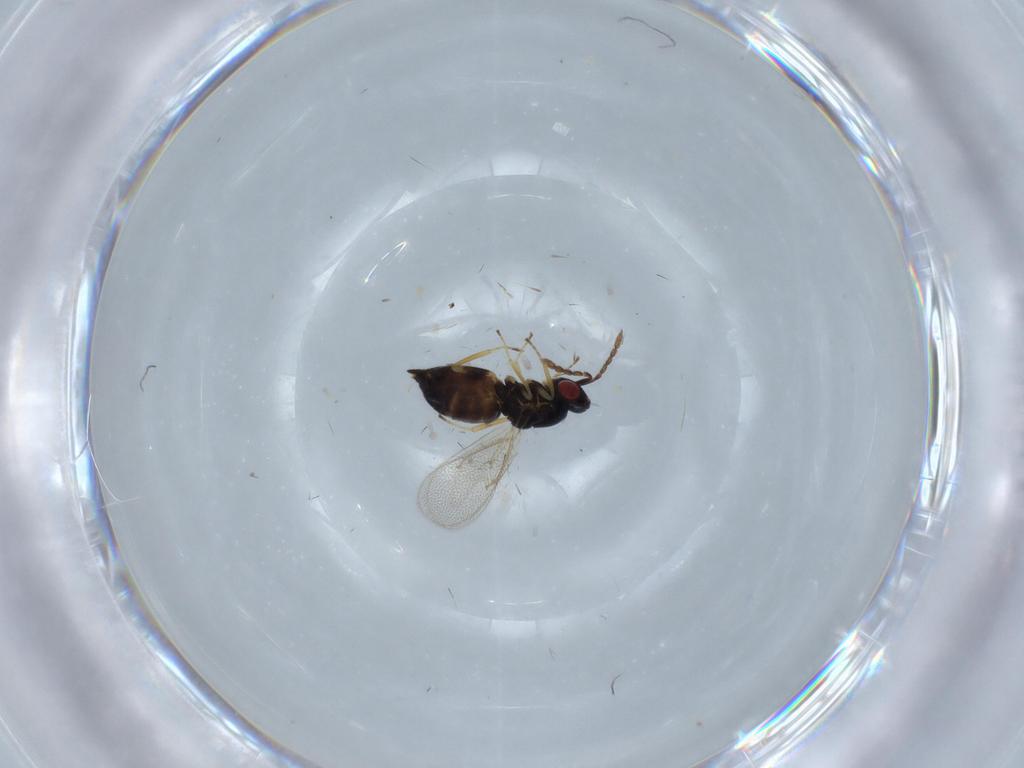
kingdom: Animalia
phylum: Arthropoda
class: Insecta
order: Hymenoptera
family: Eulophidae
